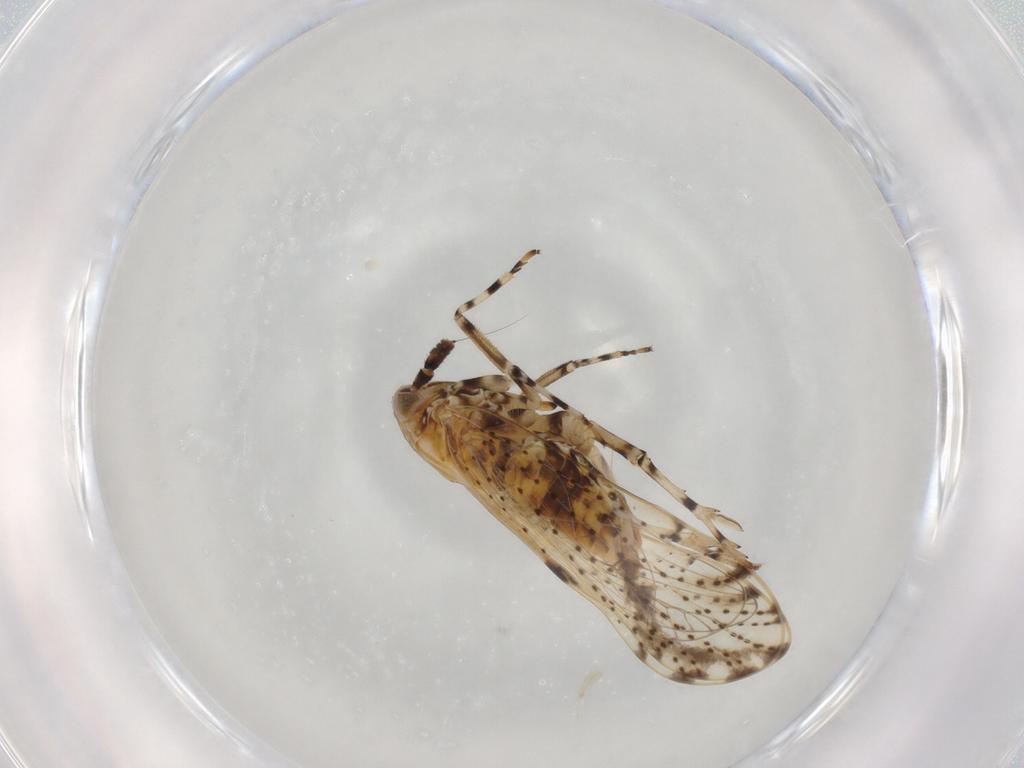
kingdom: Animalia
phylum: Arthropoda
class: Insecta
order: Hemiptera
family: Delphacidae
